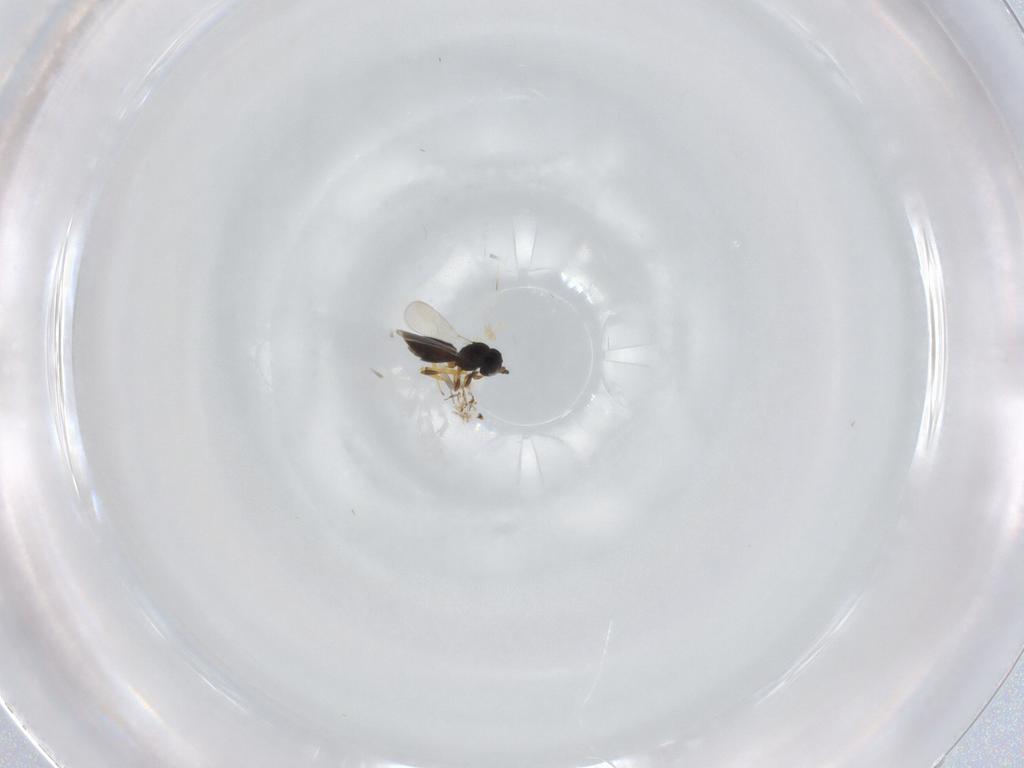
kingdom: Animalia
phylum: Arthropoda
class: Insecta
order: Hymenoptera
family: Platygastridae
